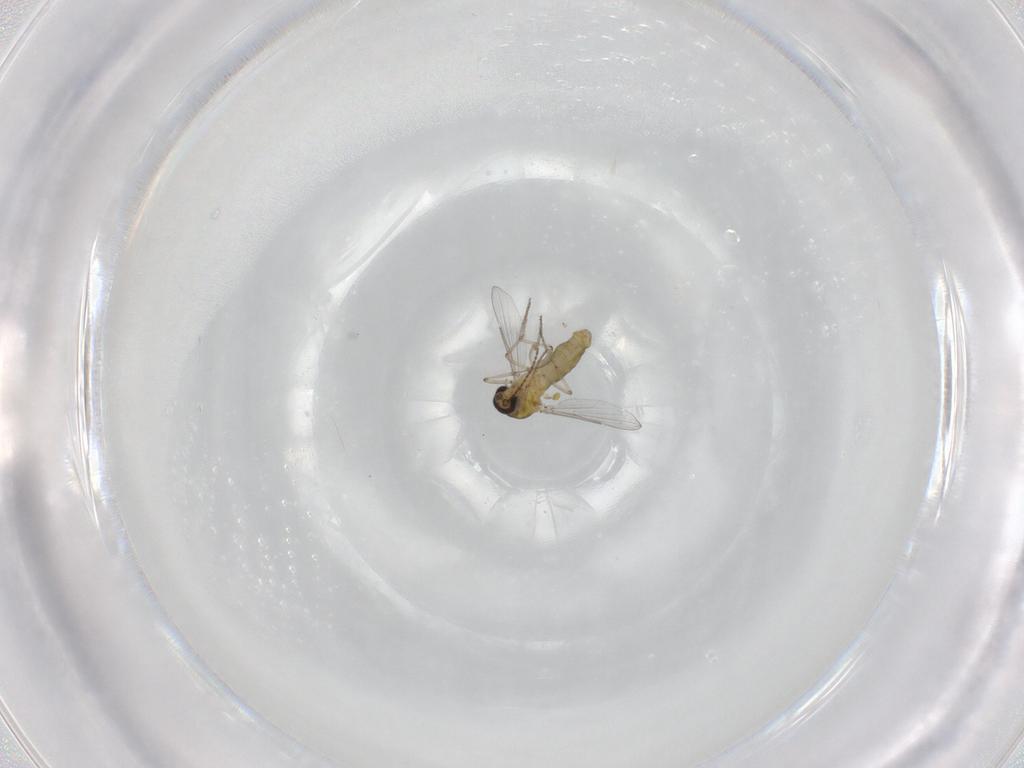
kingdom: Animalia
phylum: Arthropoda
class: Insecta
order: Diptera
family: Ceratopogonidae
